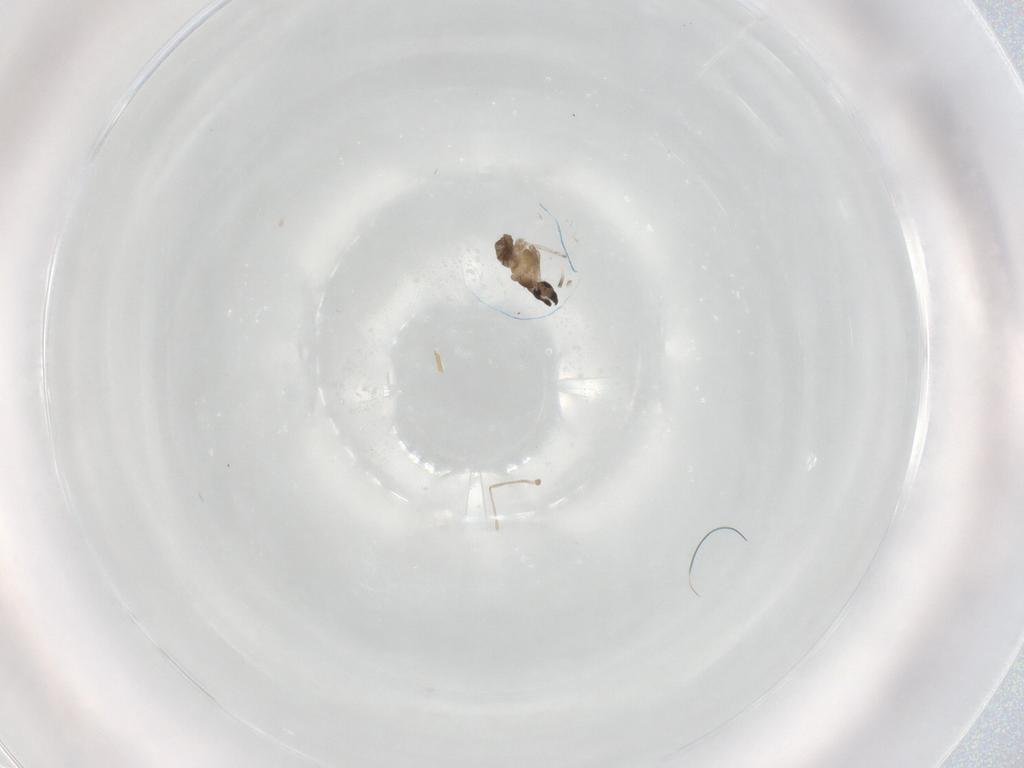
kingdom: Animalia
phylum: Arthropoda
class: Insecta
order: Diptera
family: Cecidomyiidae
